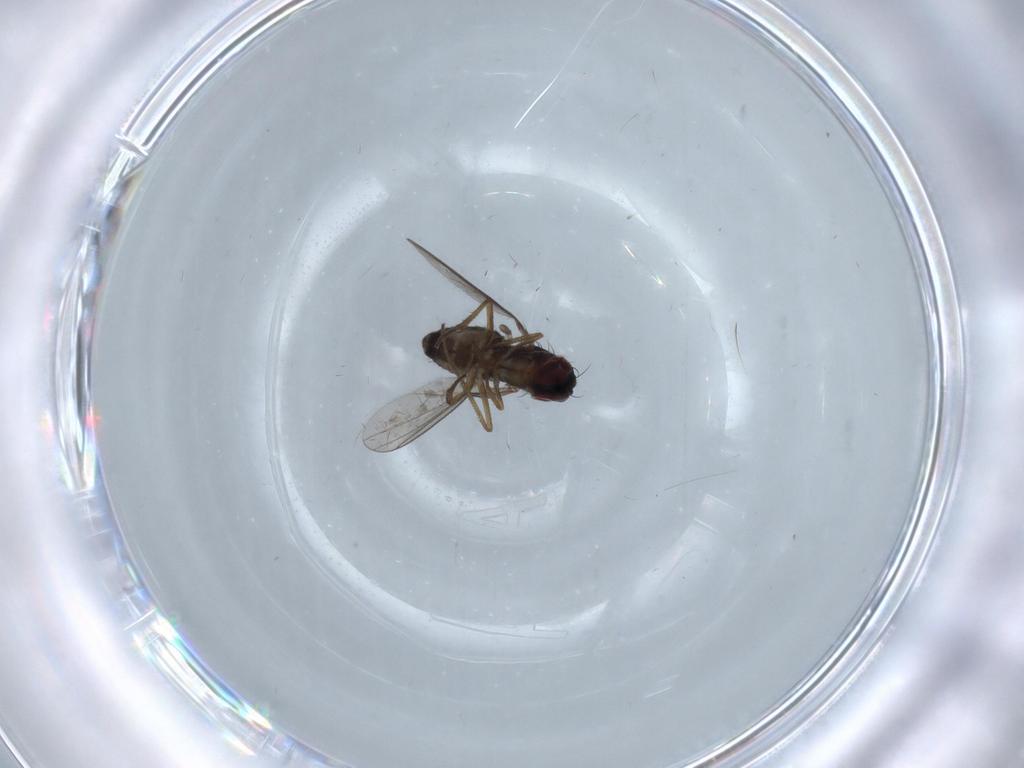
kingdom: Animalia
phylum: Arthropoda
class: Insecta
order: Diptera
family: Dolichopodidae
